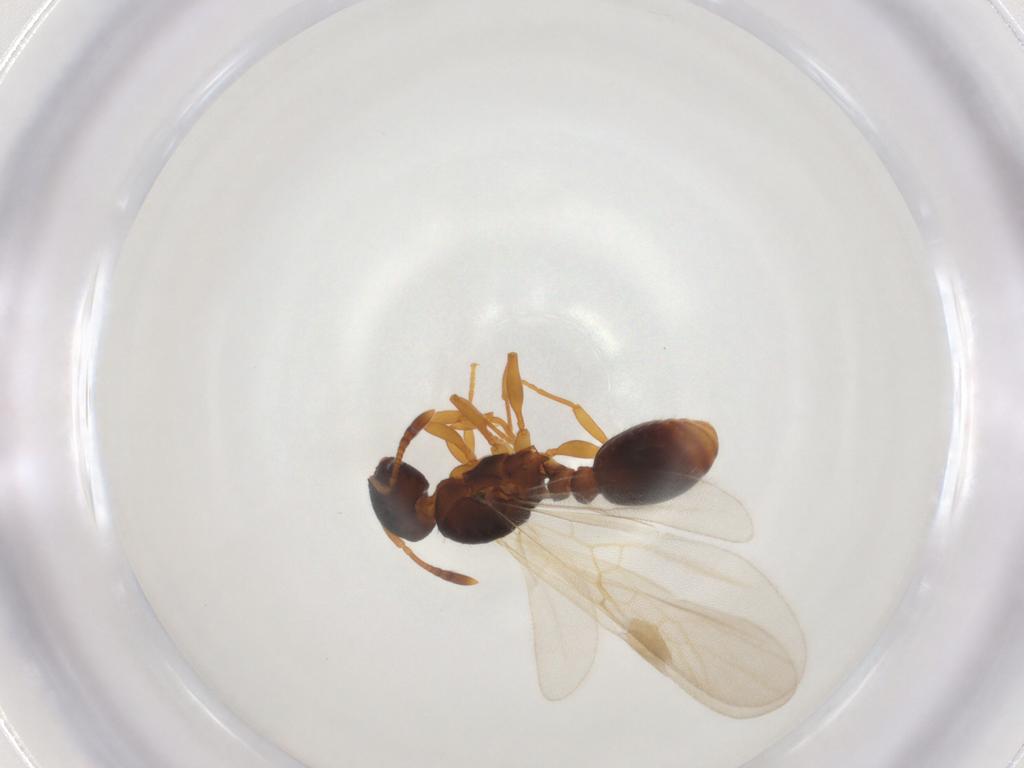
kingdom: Animalia
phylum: Arthropoda
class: Insecta
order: Hymenoptera
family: Formicidae
